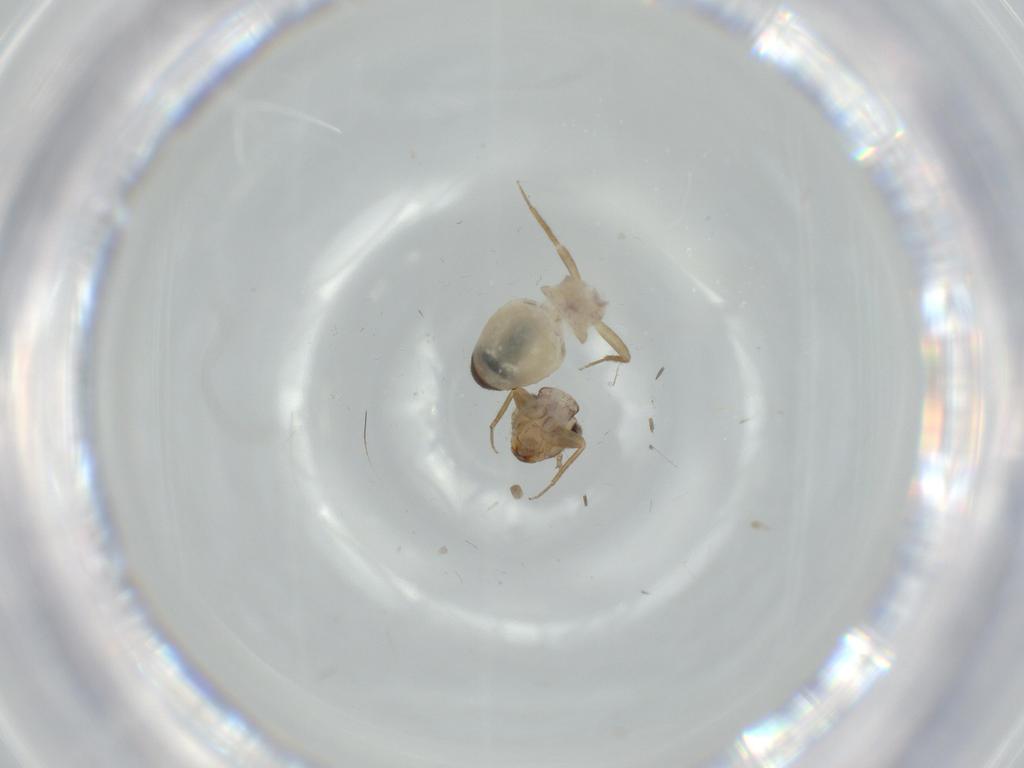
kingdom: Animalia
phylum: Arthropoda
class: Insecta
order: Psocodea
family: Lepidopsocidae
